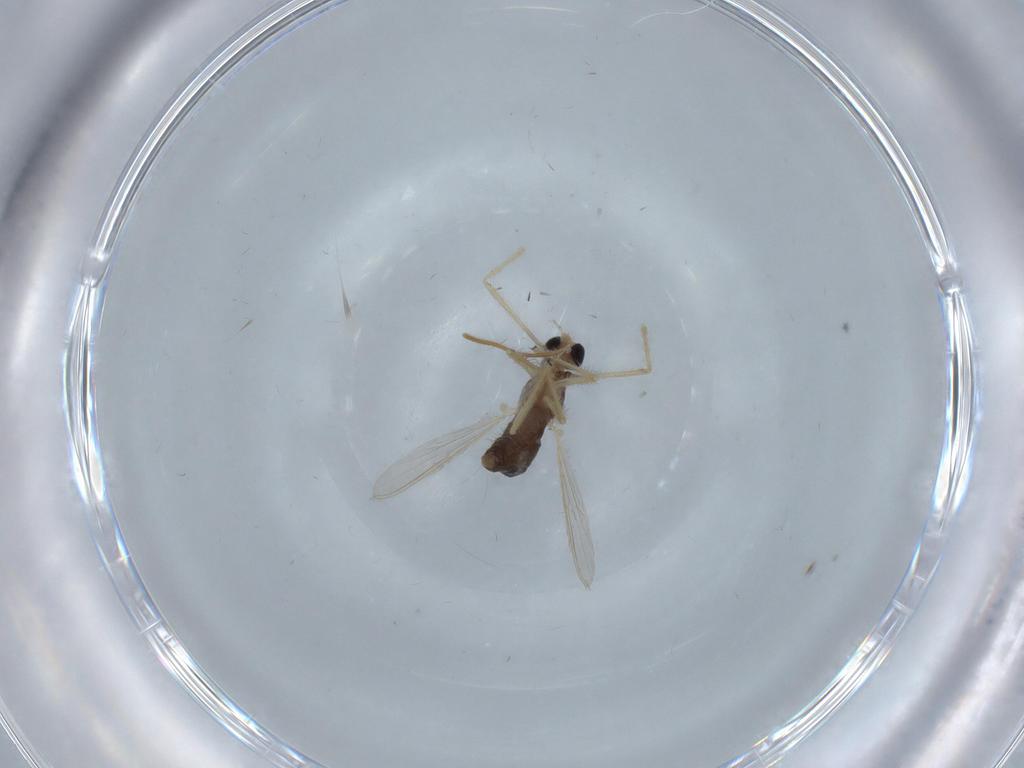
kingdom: Animalia
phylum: Arthropoda
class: Insecta
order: Diptera
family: Chironomidae
